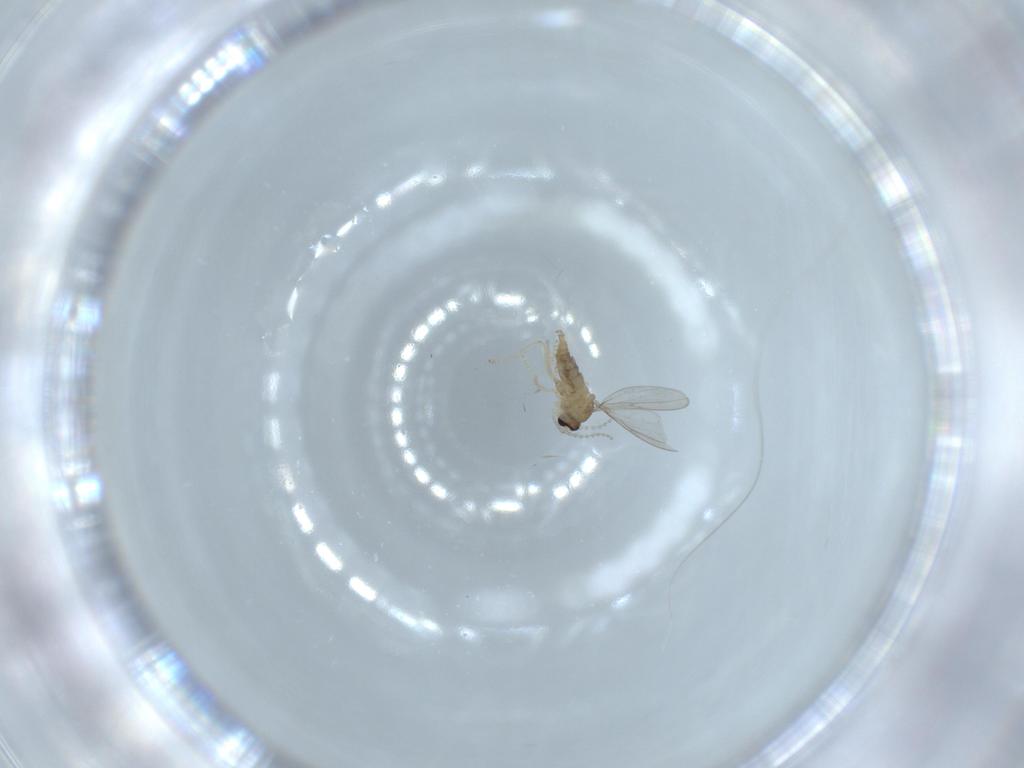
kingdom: Animalia
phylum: Arthropoda
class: Insecta
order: Diptera
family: Cecidomyiidae
